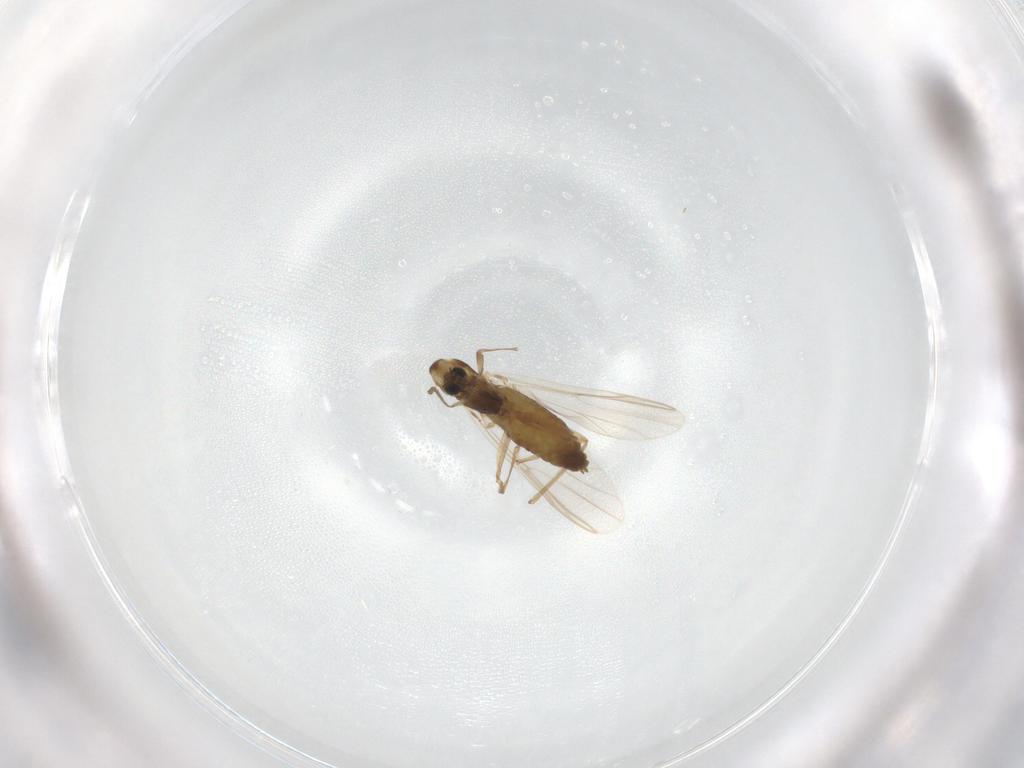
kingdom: Animalia
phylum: Arthropoda
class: Insecta
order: Diptera
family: Chironomidae
